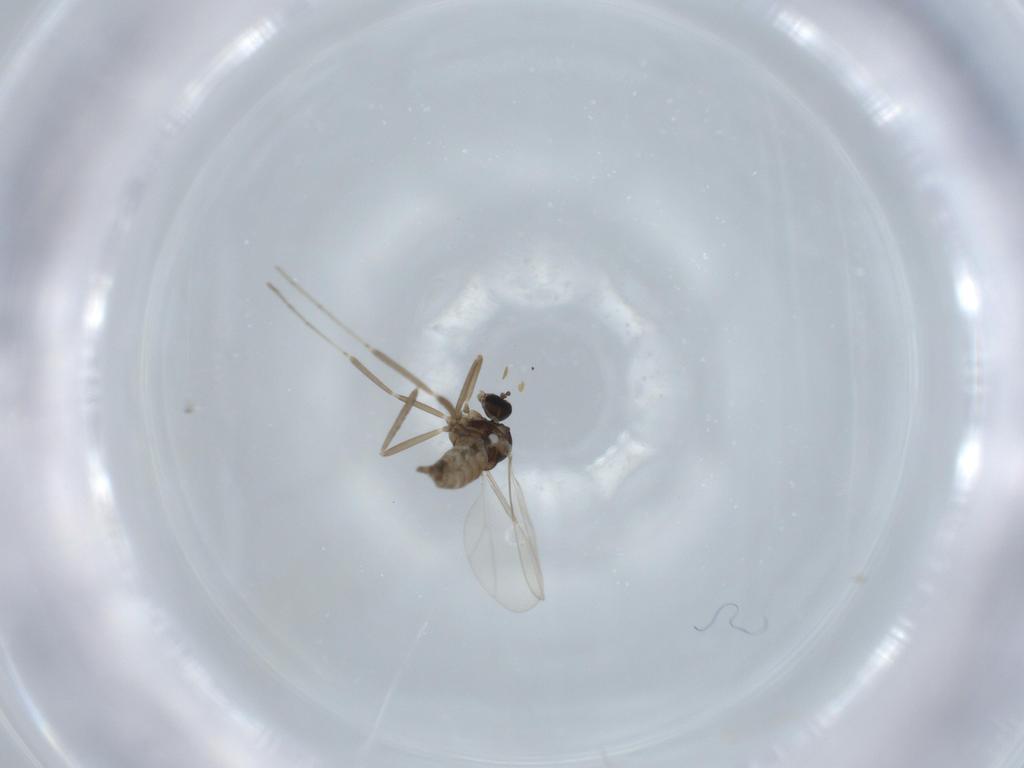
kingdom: Animalia
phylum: Arthropoda
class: Insecta
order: Diptera
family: Cecidomyiidae
